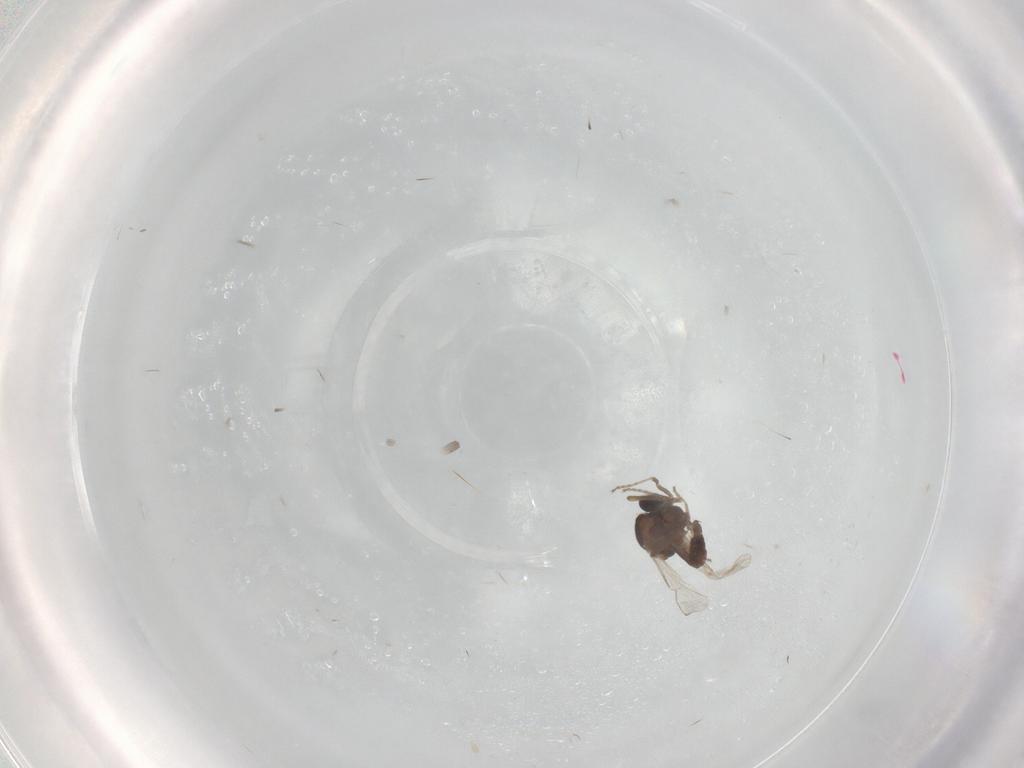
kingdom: Animalia
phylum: Arthropoda
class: Insecta
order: Diptera
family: Ceratopogonidae
